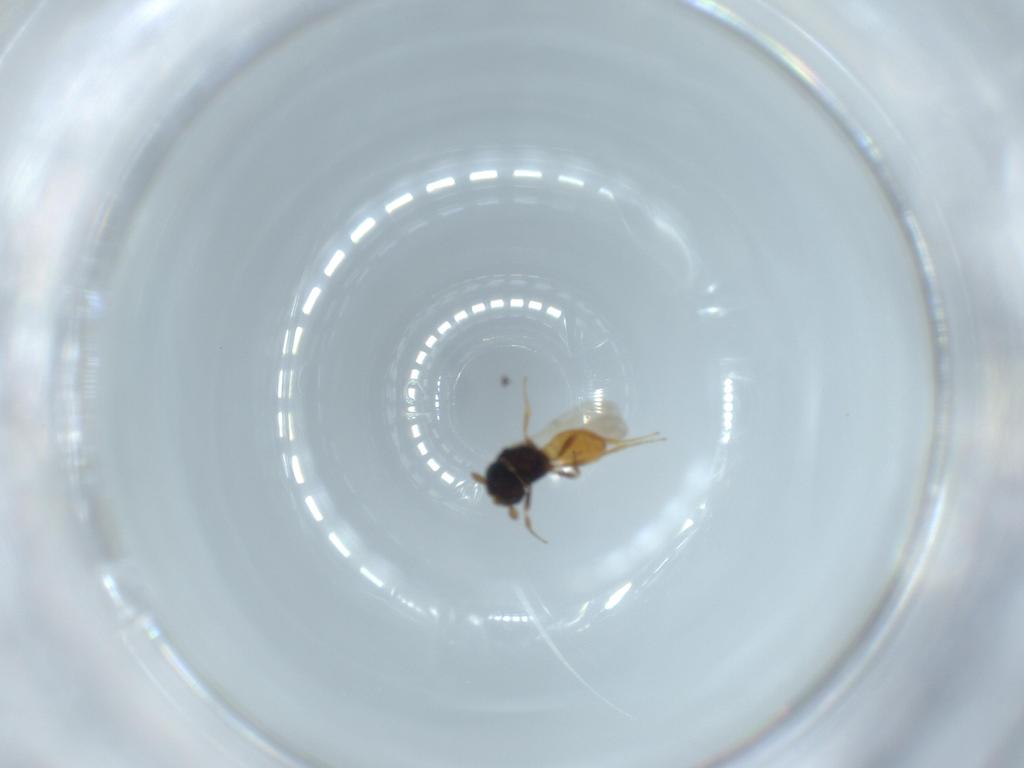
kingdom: Animalia
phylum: Arthropoda
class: Insecta
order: Hymenoptera
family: Scelionidae
